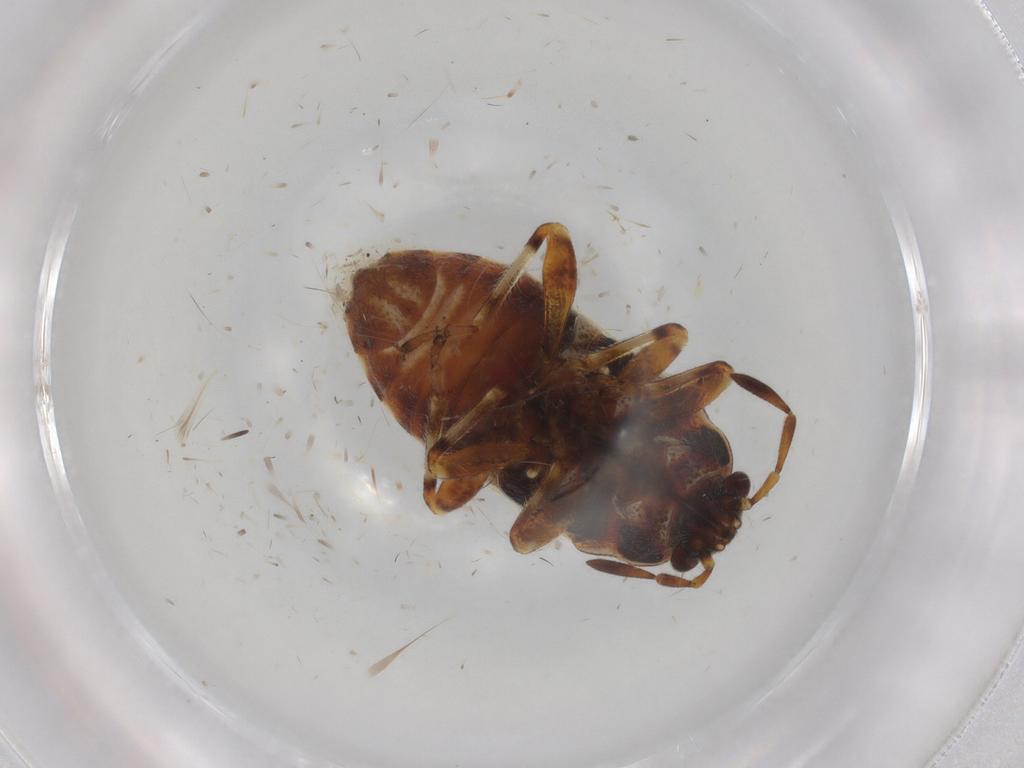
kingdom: Animalia
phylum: Arthropoda
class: Insecta
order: Hemiptera
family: Lygaeidae
